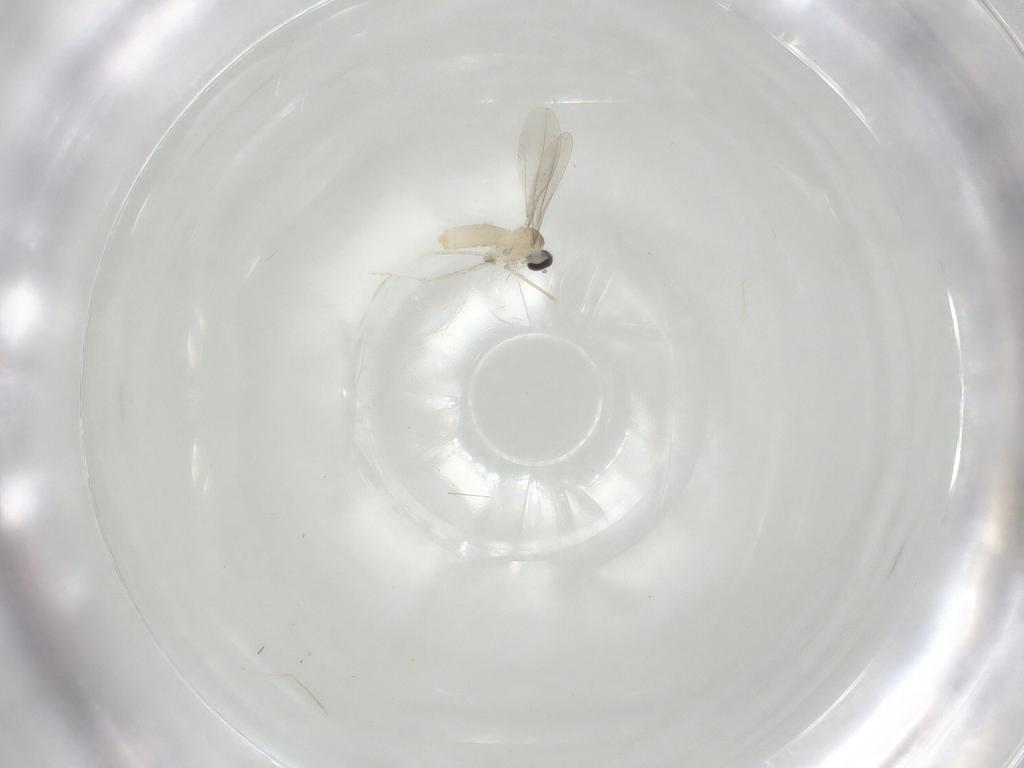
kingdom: Animalia
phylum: Arthropoda
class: Insecta
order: Diptera
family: Cecidomyiidae
